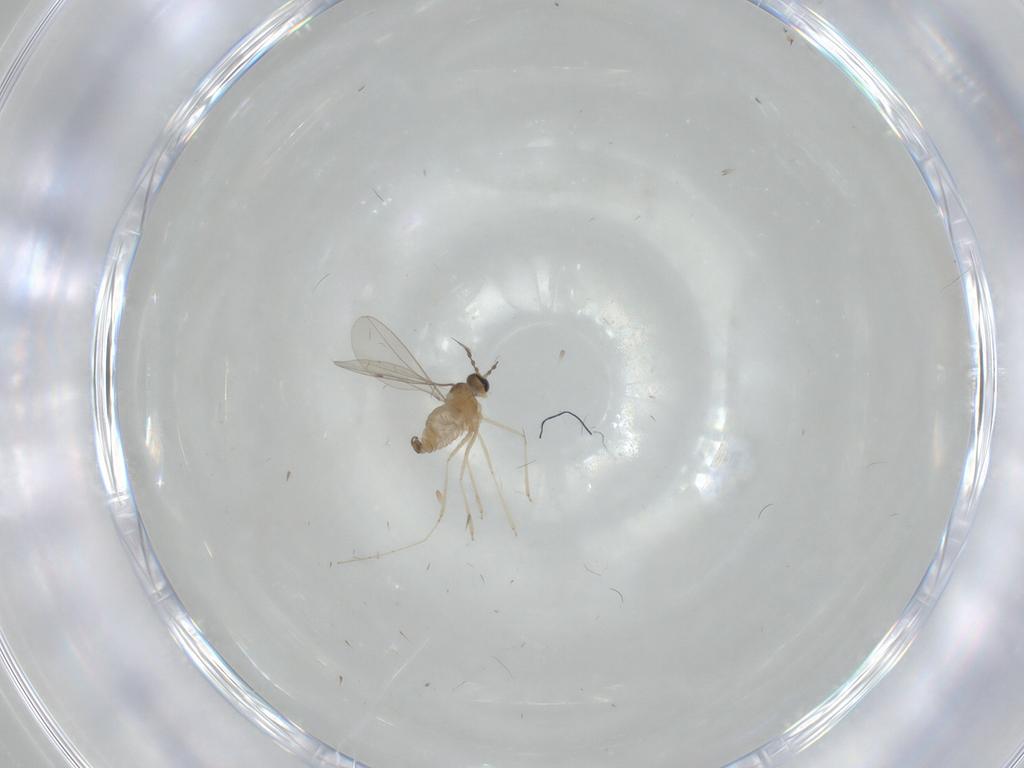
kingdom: Animalia
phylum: Arthropoda
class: Insecta
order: Diptera
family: Cecidomyiidae
